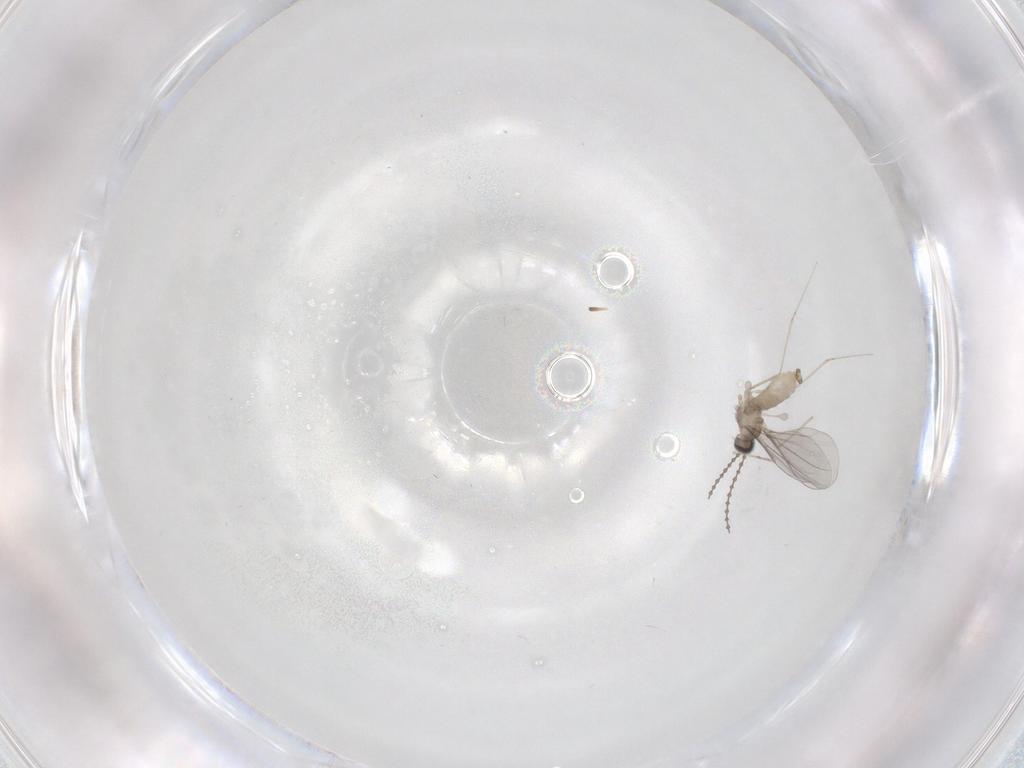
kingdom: Animalia
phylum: Arthropoda
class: Insecta
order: Diptera
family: Cecidomyiidae
